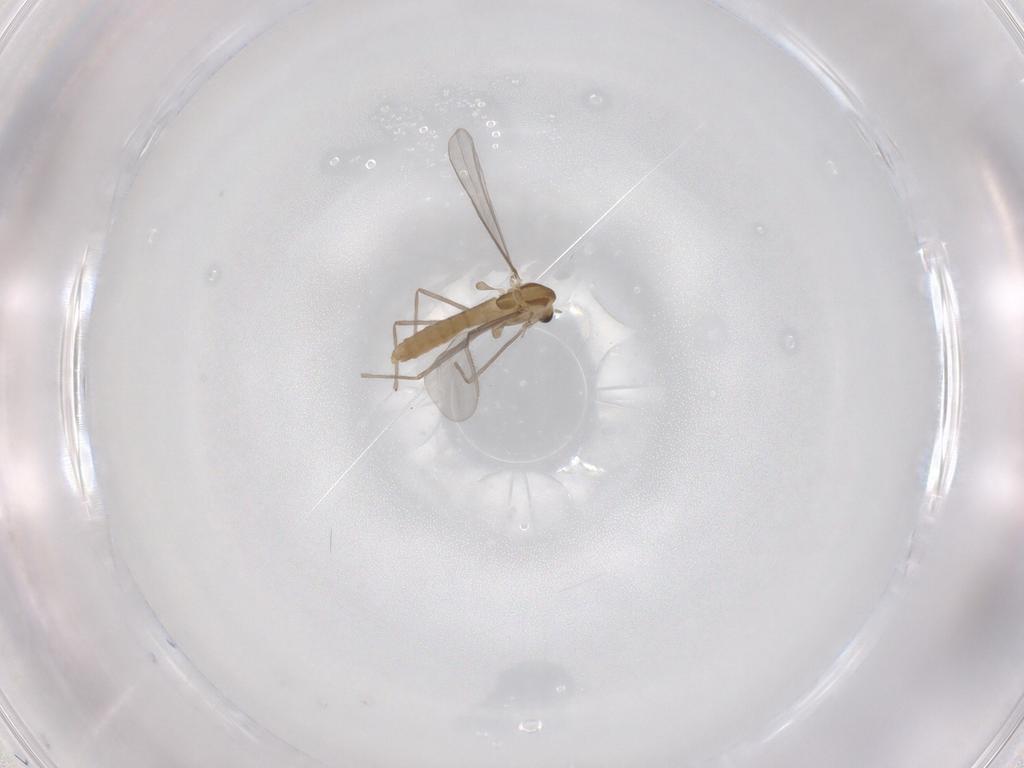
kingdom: Animalia
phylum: Arthropoda
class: Insecta
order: Diptera
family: Chironomidae
